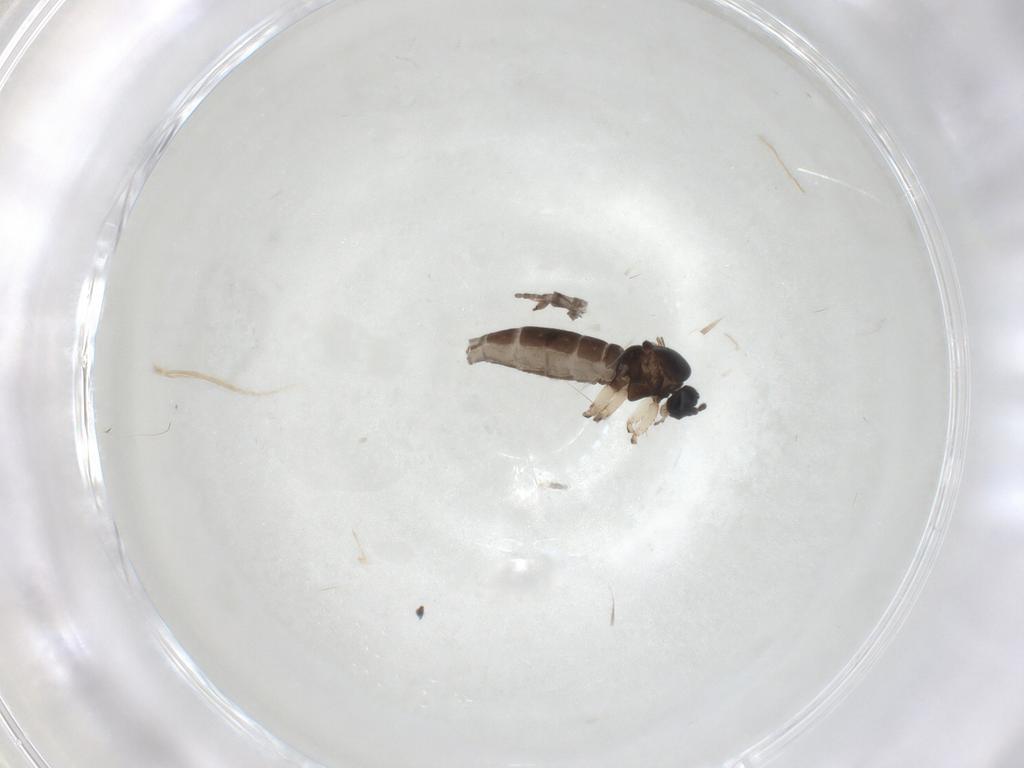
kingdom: Animalia
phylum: Arthropoda
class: Insecta
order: Diptera
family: Sciaridae
